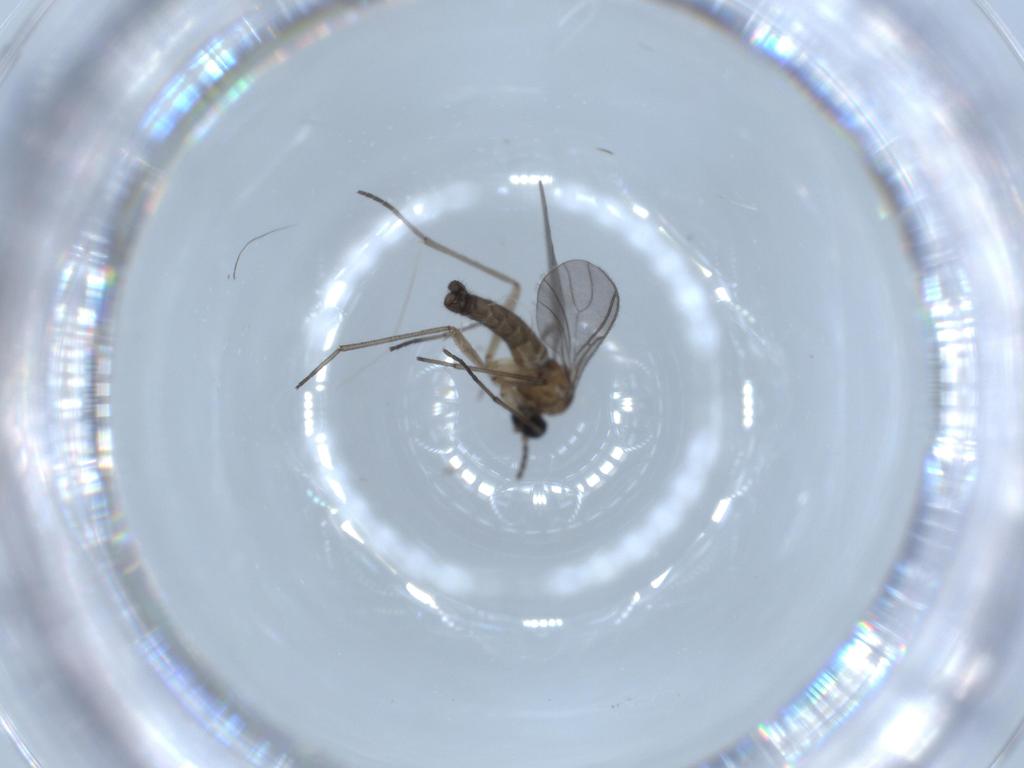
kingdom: Animalia
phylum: Arthropoda
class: Insecta
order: Diptera
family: Sciaridae
